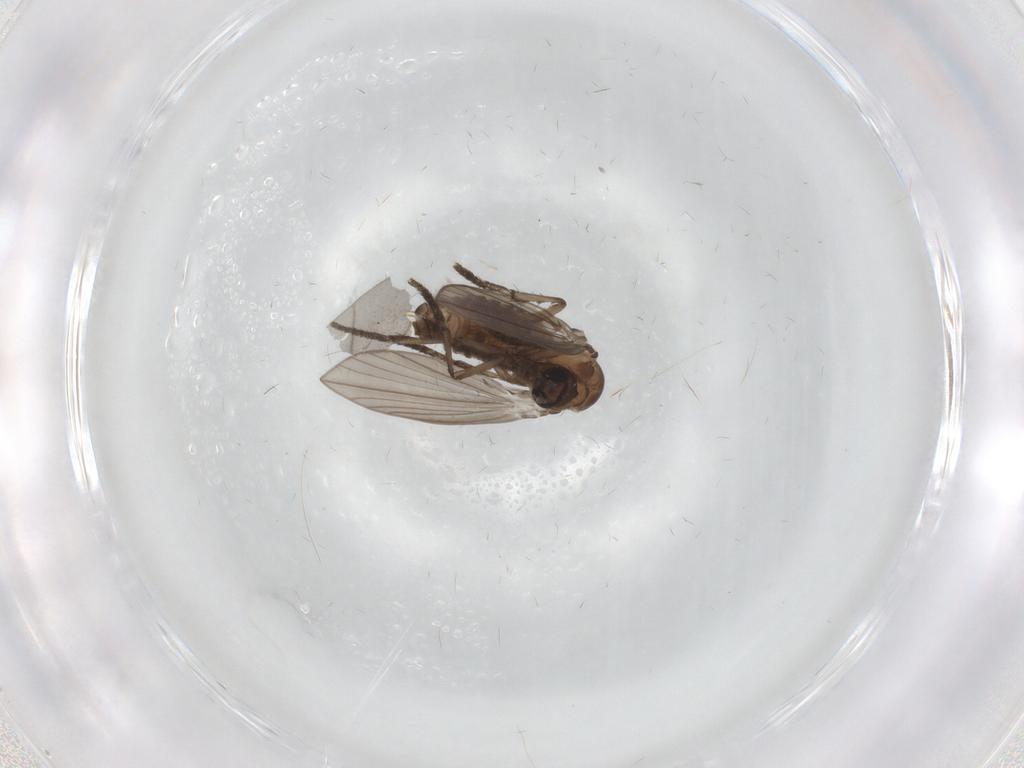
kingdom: Animalia
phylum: Arthropoda
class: Insecta
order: Diptera
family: Psychodidae
